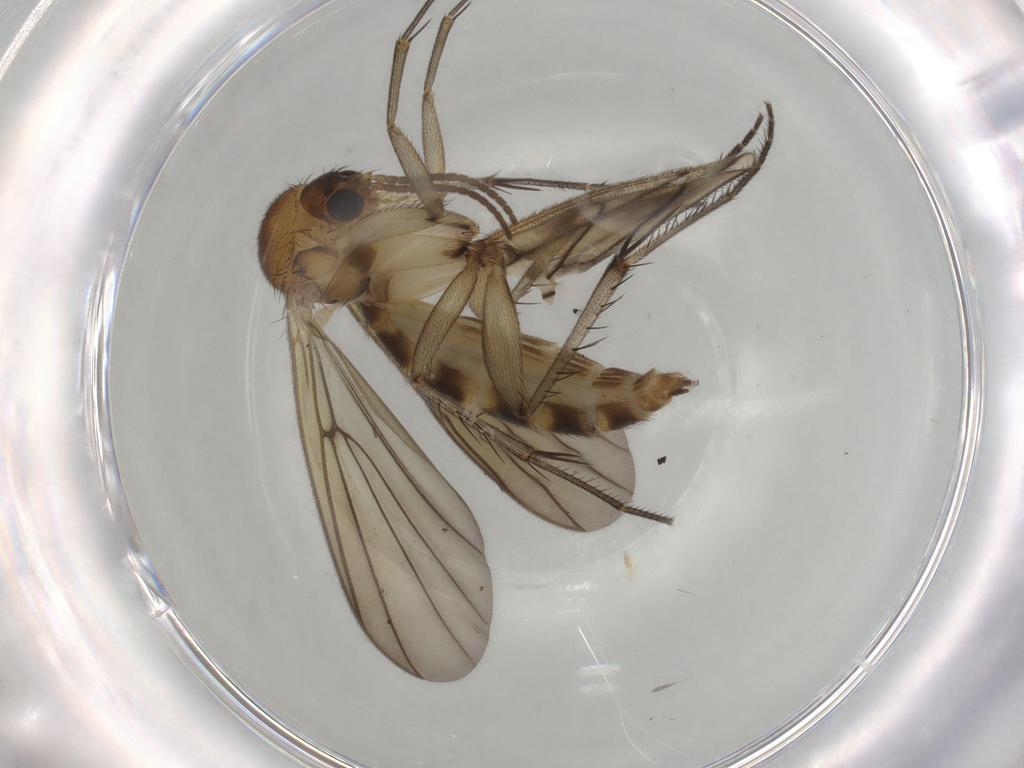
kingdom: Animalia
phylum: Arthropoda
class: Insecta
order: Diptera
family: Mycetophilidae
